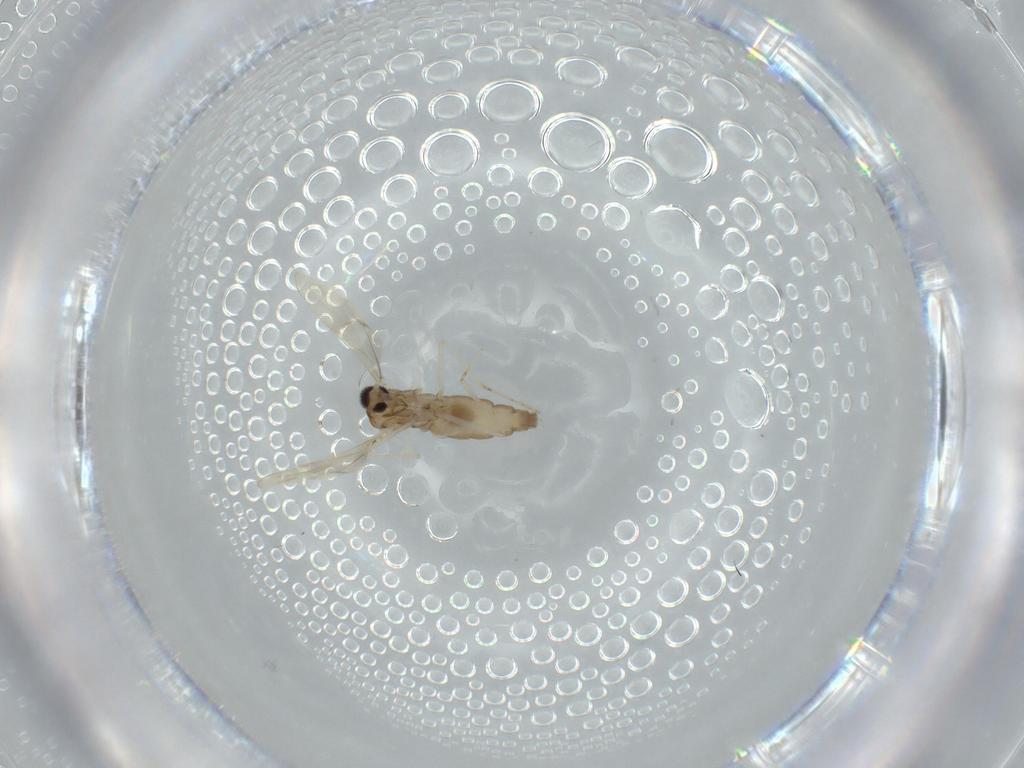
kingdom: Animalia
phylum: Arthropoda
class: Insecta
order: Diptera
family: Cecidomyiidae
